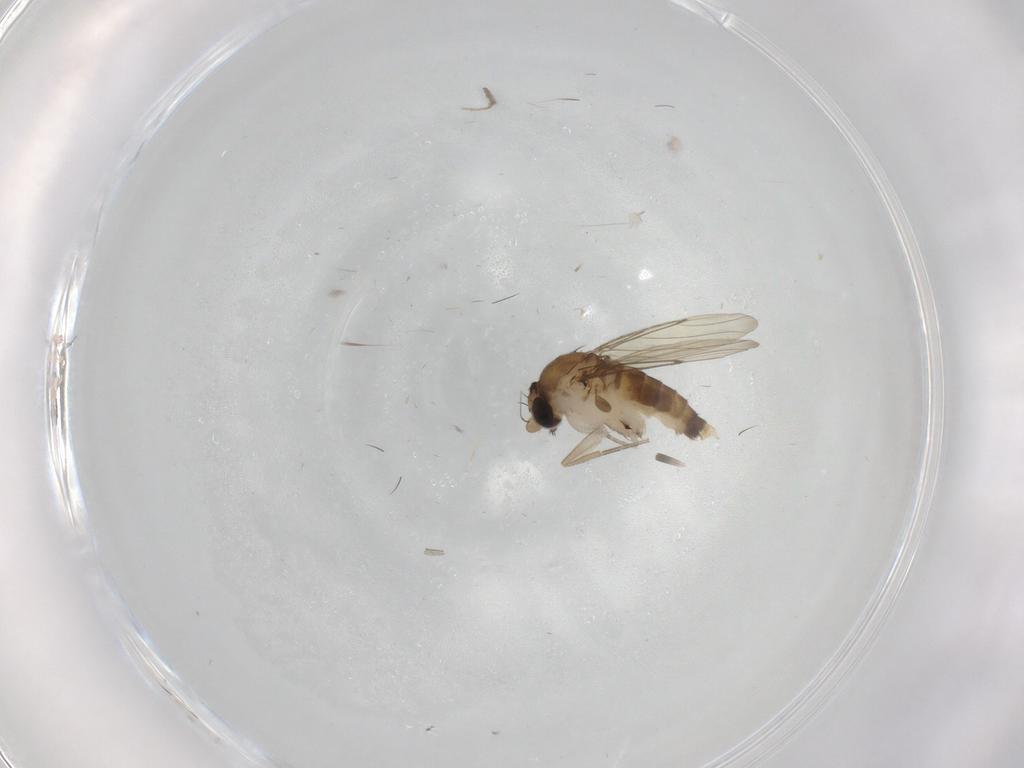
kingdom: Animalia
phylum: Arthropoda
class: Insecta
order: Diptera
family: Chironomidae
